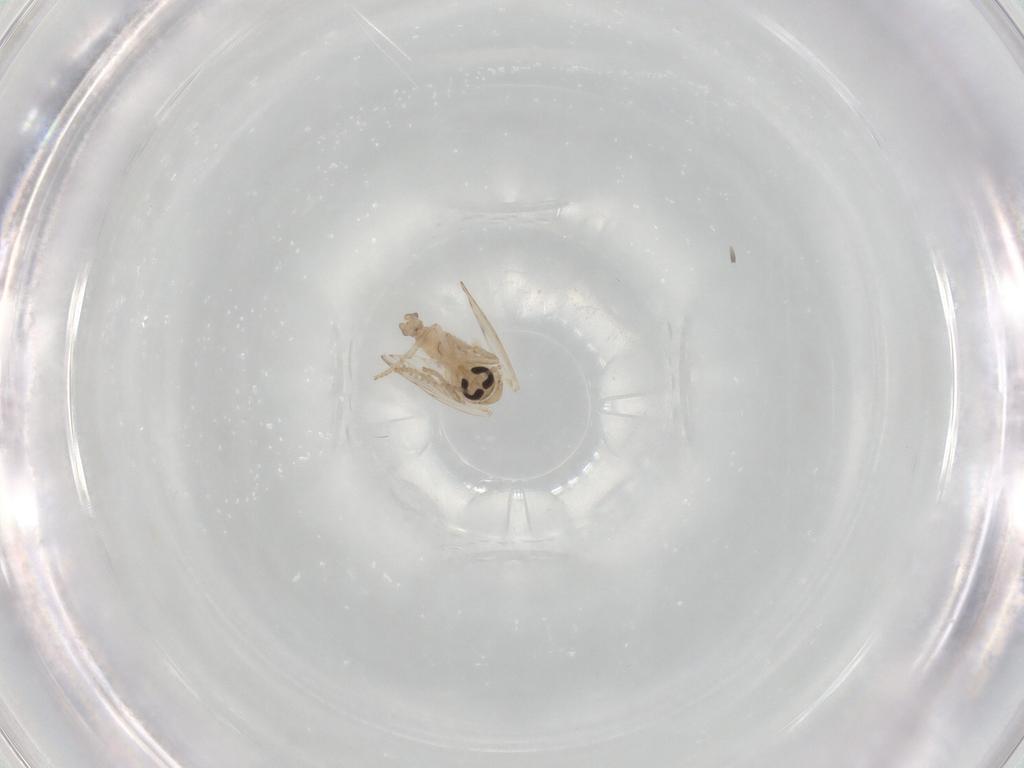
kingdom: Animalia
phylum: Arthropoda
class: Insecta
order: Diptera
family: Psychodidae
